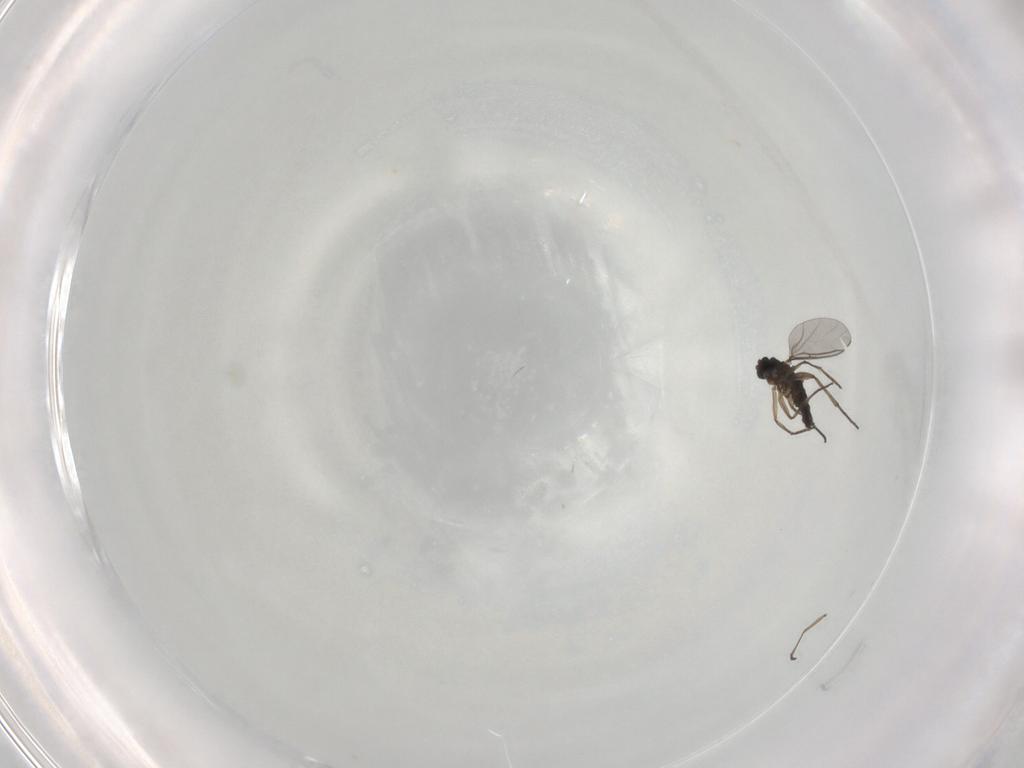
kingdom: Animalia
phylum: Arthropoda
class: Insecta
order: Diptera
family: Sciaridae
